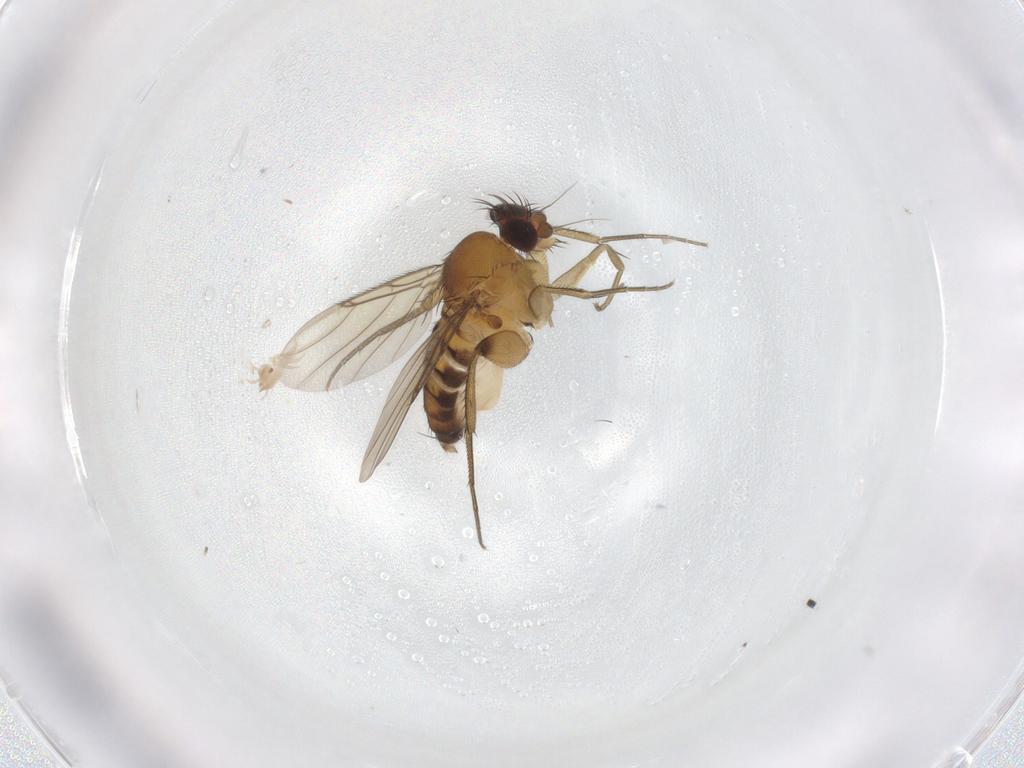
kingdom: Animalia
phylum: Arthropoda
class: Insecta
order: Diptera
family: Phoridae
